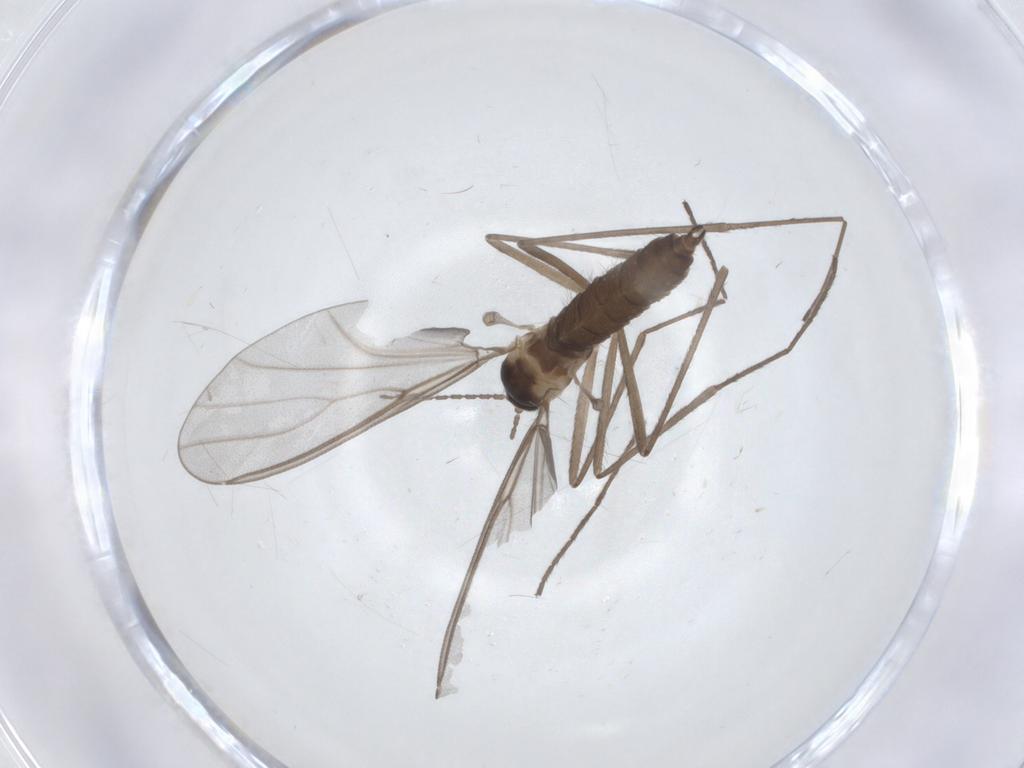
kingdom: Animalia
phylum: Arthropoda
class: Insecta
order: Diptera
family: Cecidomyiidae
